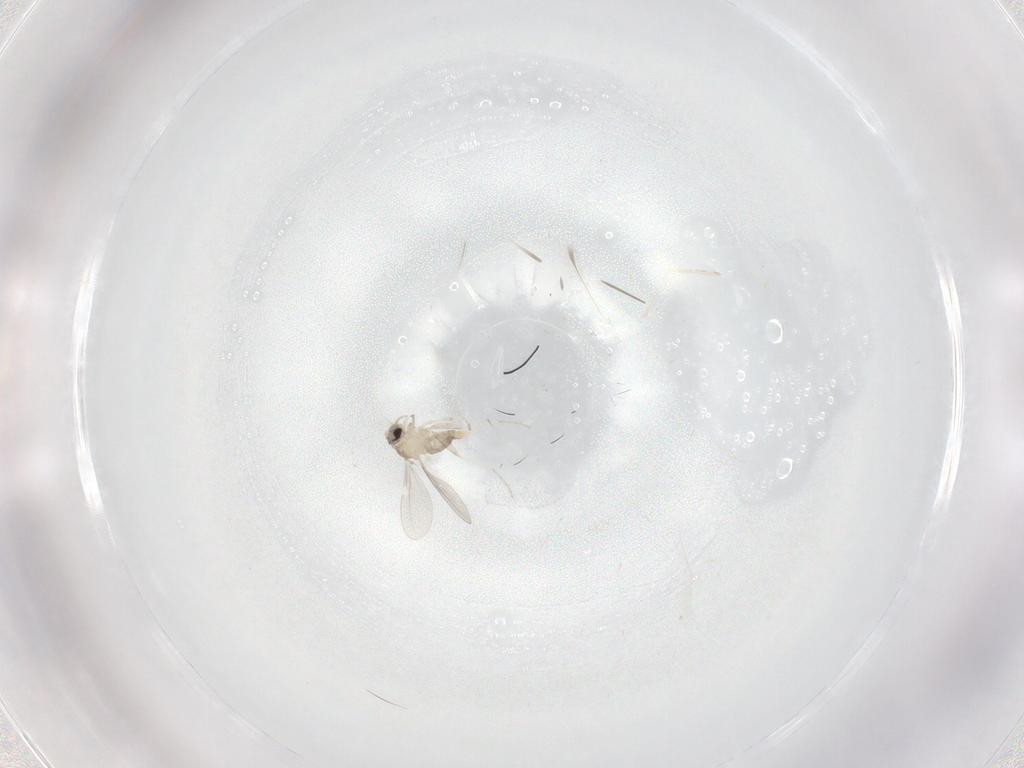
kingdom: Animalia
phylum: Arthropoda
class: Insecta
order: Diptera
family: Cecidomyiidae
